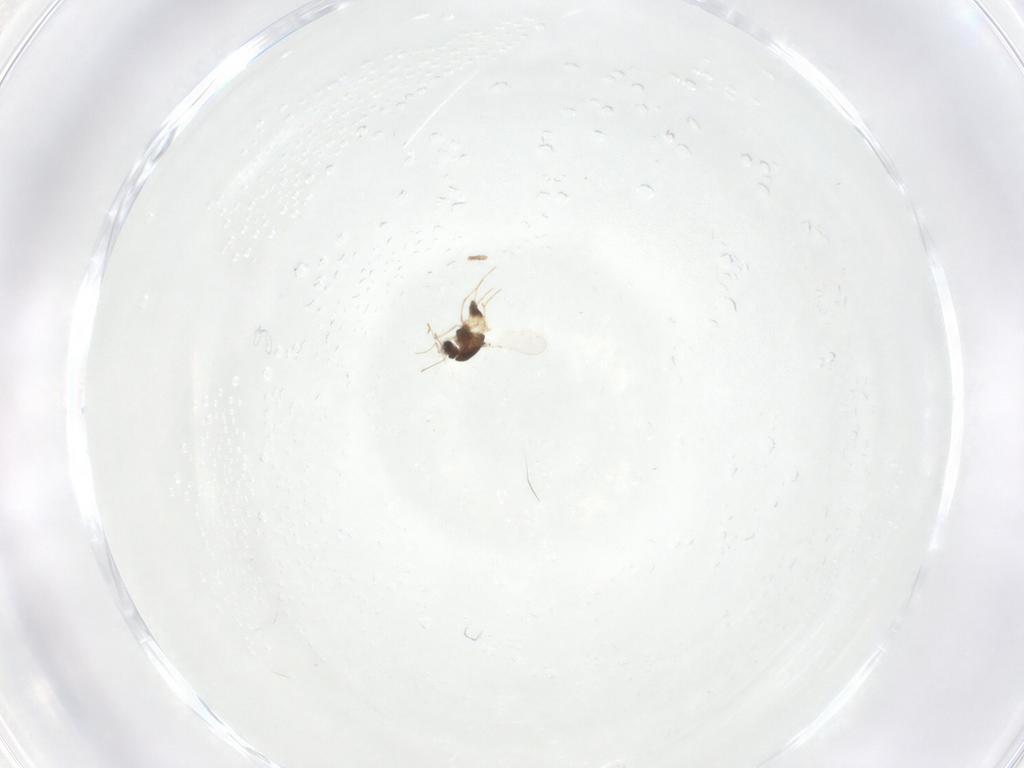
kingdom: Animalia
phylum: Arthropoda
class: Insecta
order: Diptera
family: Chironomidae
